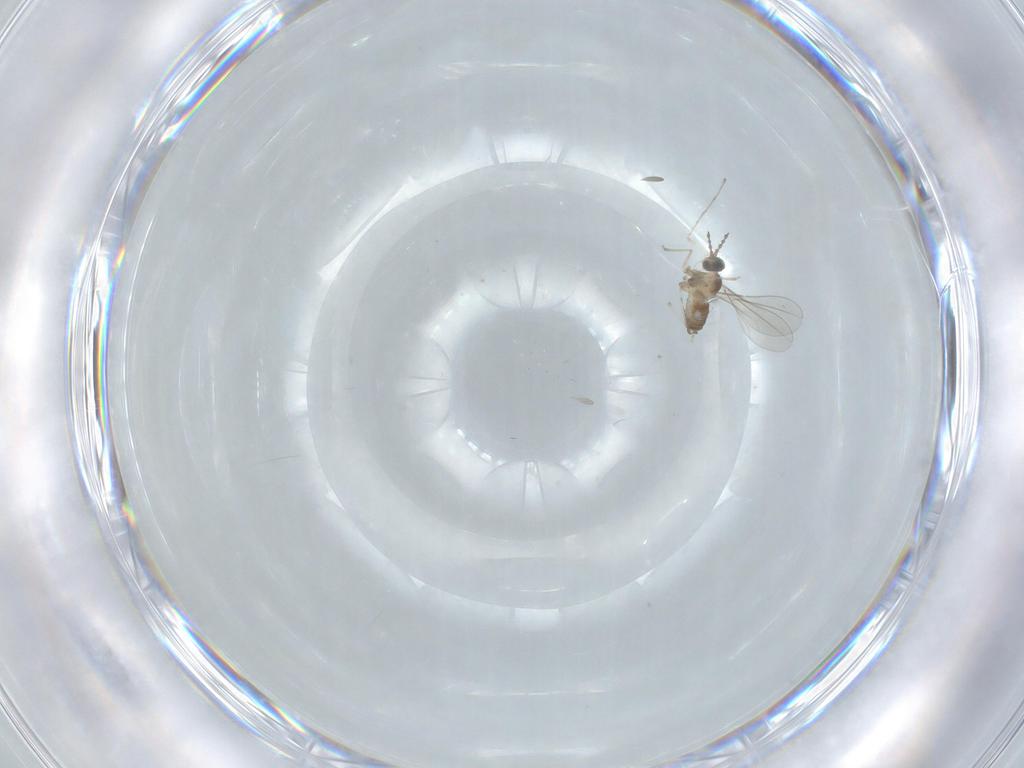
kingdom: Animalia
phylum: Arthropoda
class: Insecta
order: Diptera
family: Cecidomyiidae
